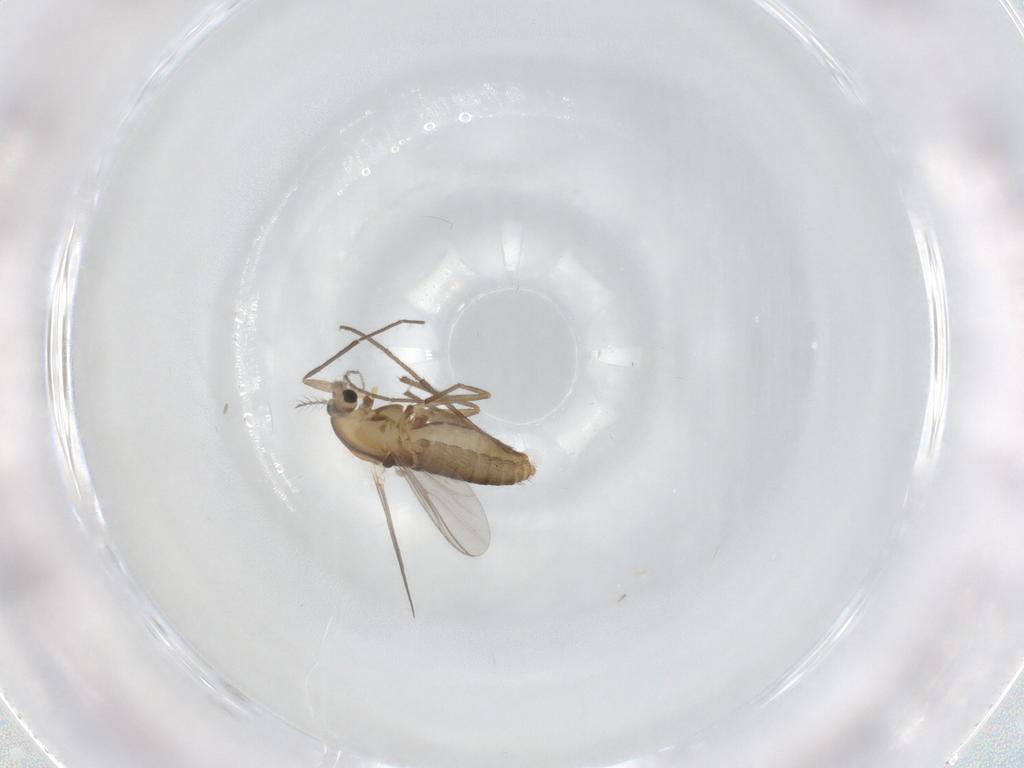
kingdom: Animalia
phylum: Arthropoda
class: Insecta
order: Diptera
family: Chironomidae
